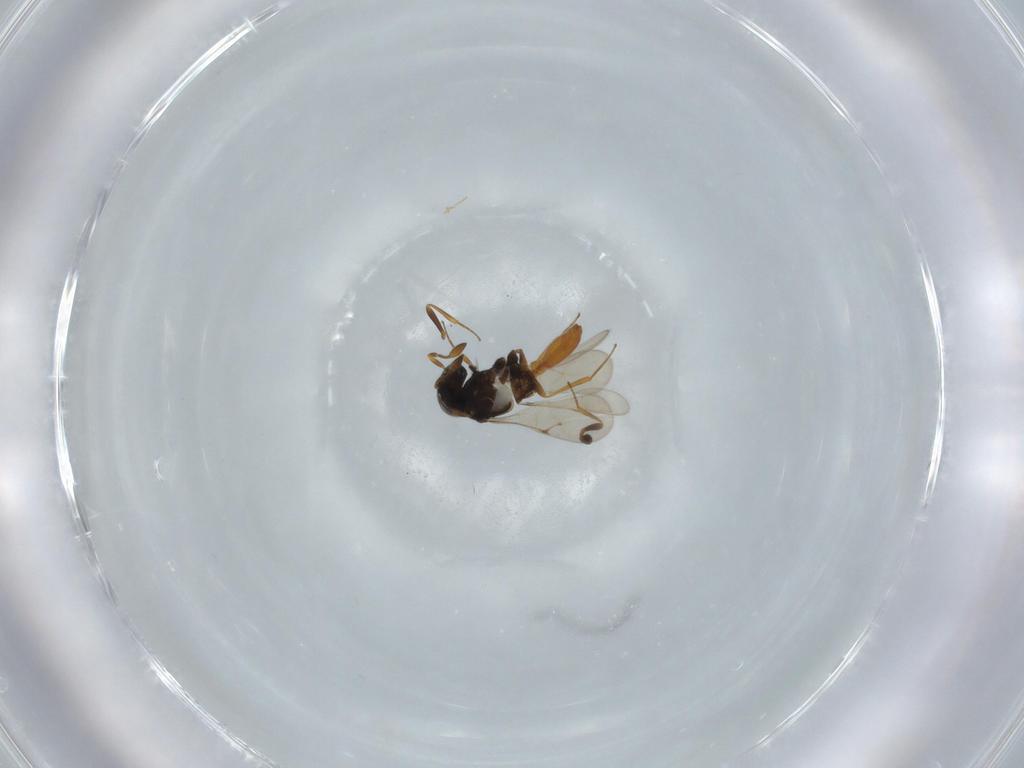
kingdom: Animalia
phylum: Arthropoda
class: Insecta
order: Hymenoptera
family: Scelionidae
